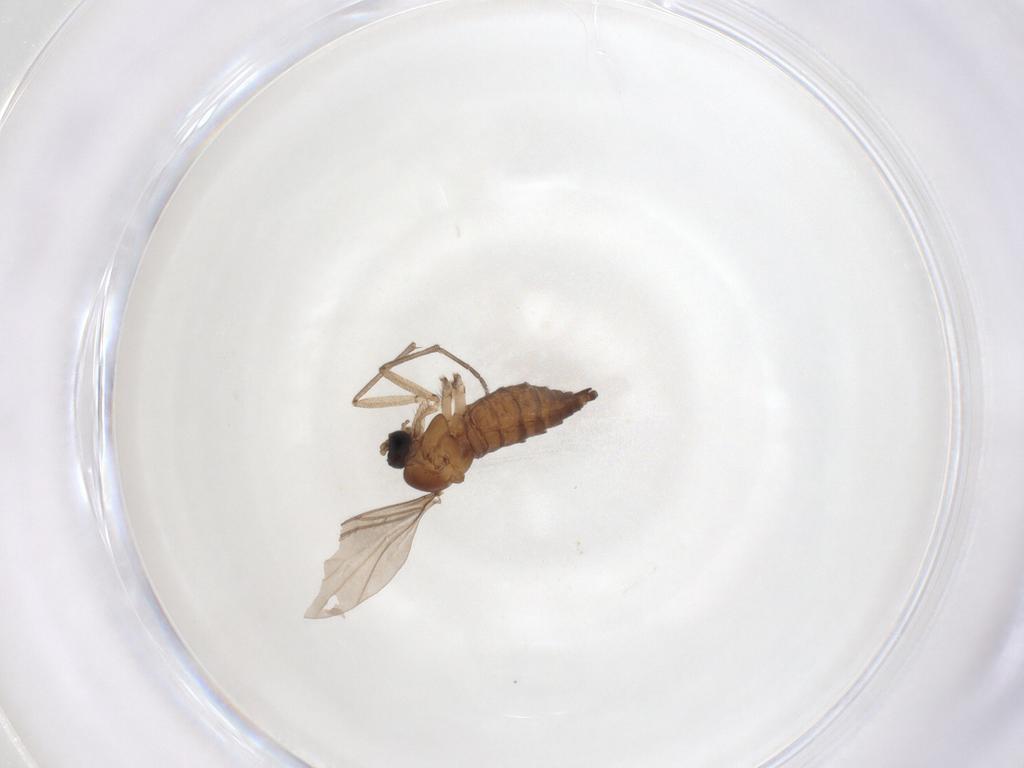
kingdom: Animalia
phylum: Arthropoda
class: Insecta
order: Diptera
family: Sciaridae
